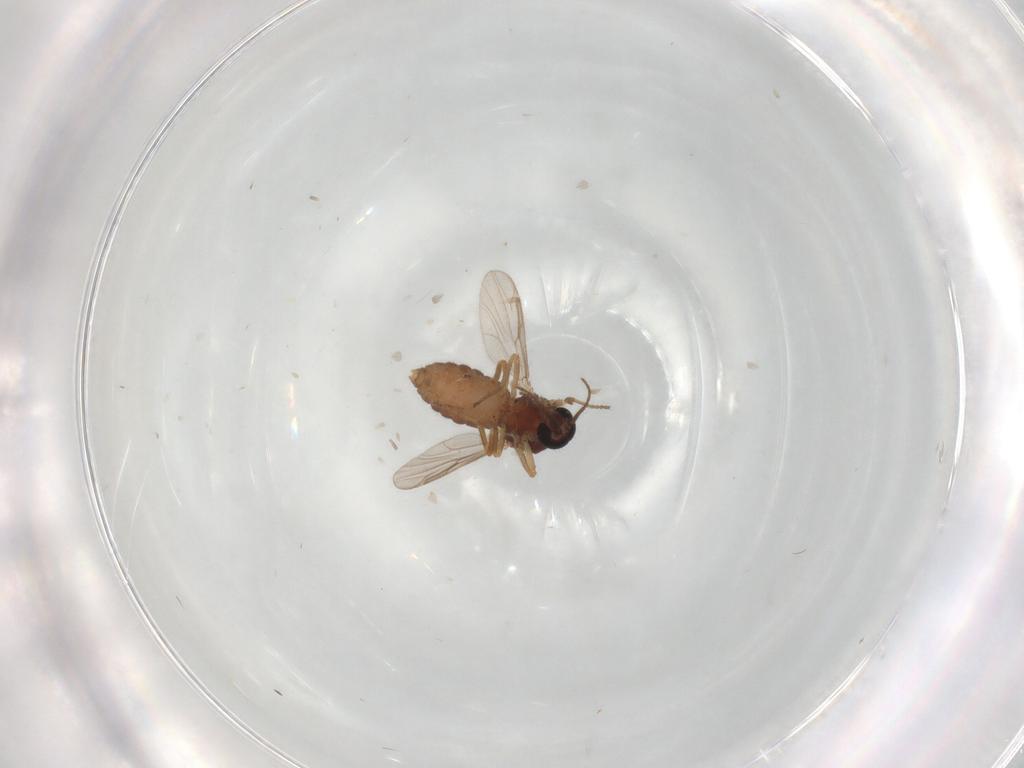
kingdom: Animalia
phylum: Arthropoda
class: Insecta
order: Diptera
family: Ceratopogonidae
